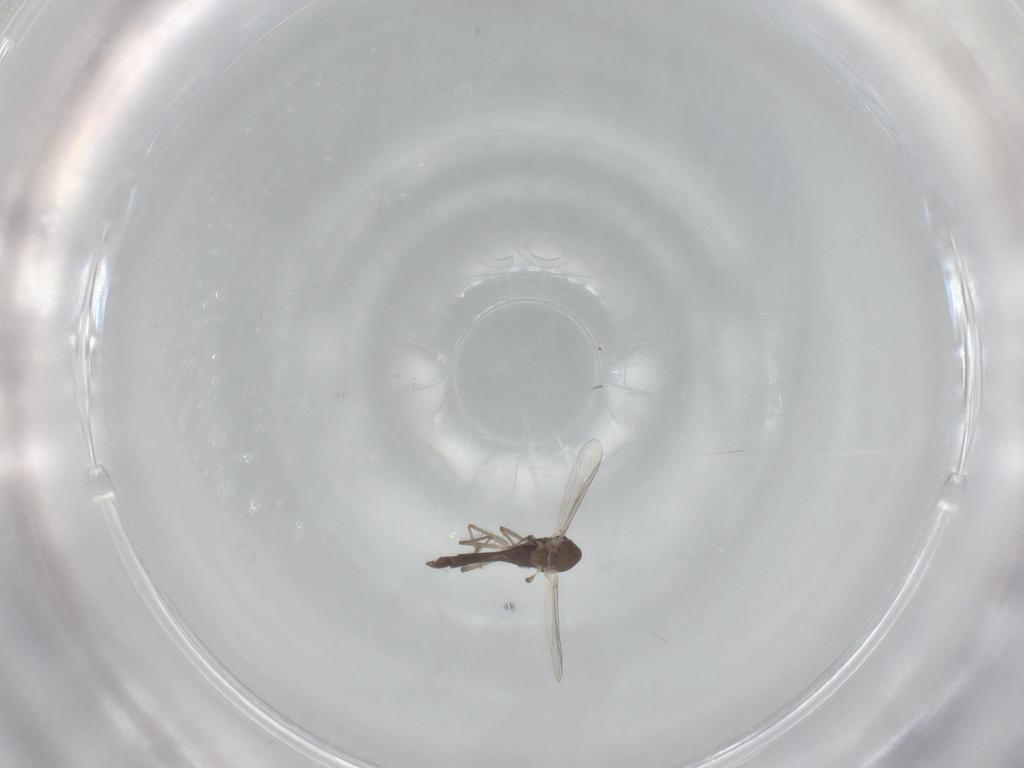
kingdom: Animalia
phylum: Arthropoda
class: Insecta
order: Diptera
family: Chironomidae
